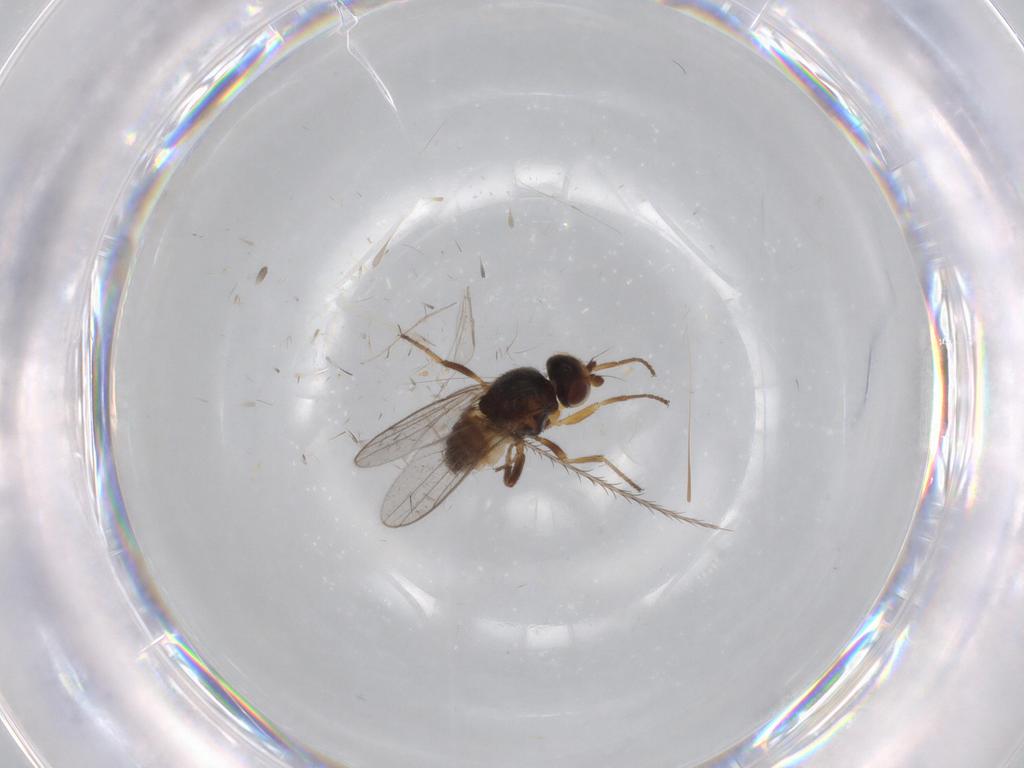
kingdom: Animalia
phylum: Arthropoda
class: Insecta
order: Diptera
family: Chloropidae
